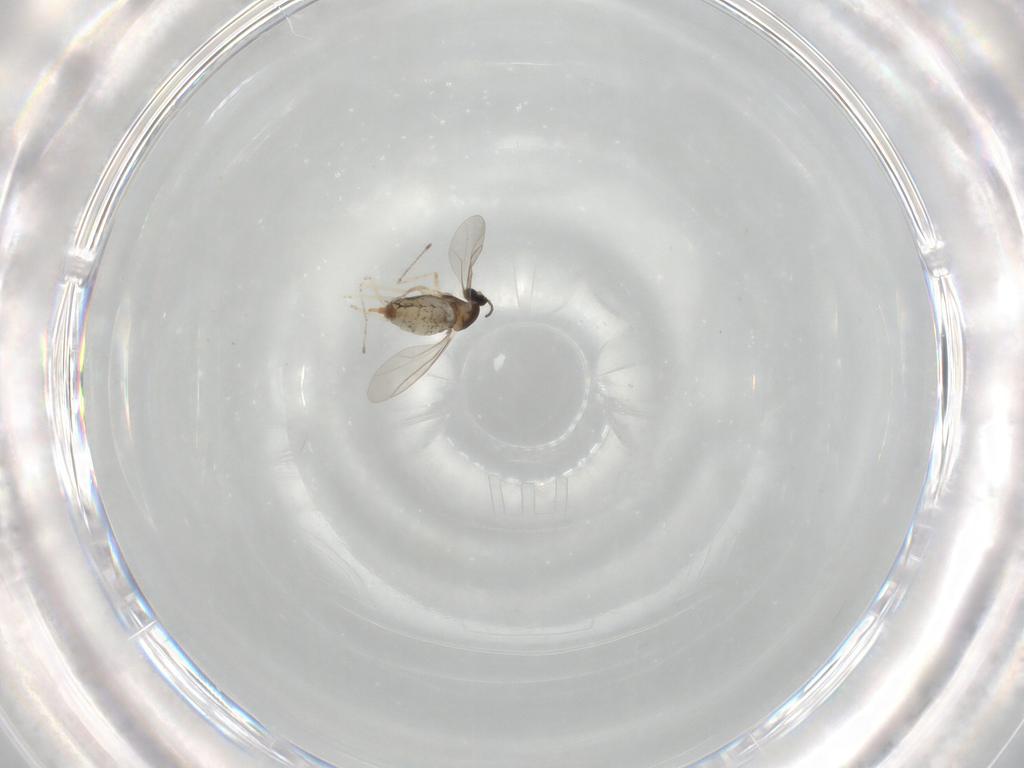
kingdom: Animalia
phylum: Arthropoda
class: Insecta
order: Diptera
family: Cecidomyiidae
